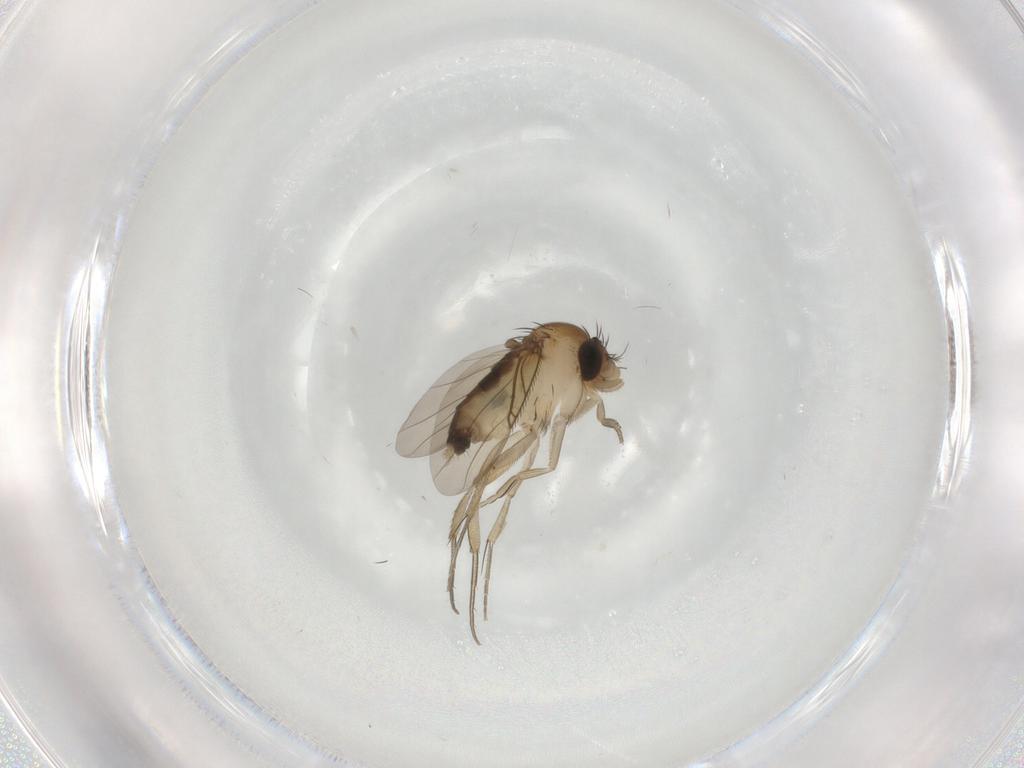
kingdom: Animalia
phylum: Arthropoda
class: Insecta
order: Diptera
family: Phoridae
